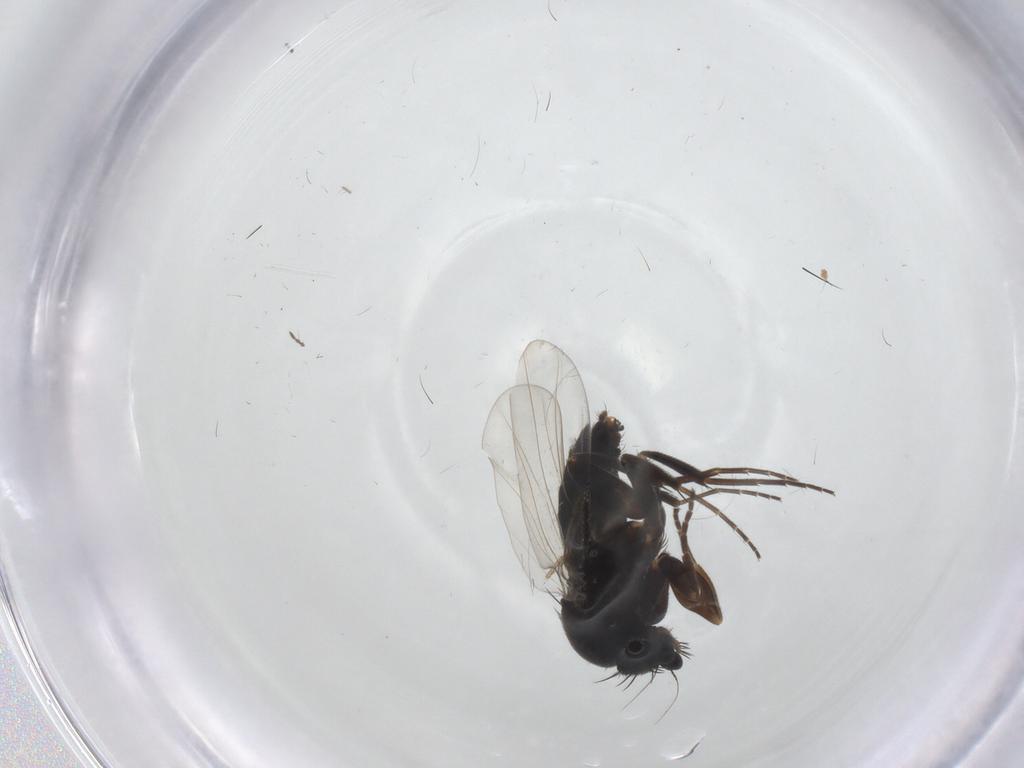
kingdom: Animalia
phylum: Arthropoda
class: Insecta
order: Diptera
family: Phoridae
